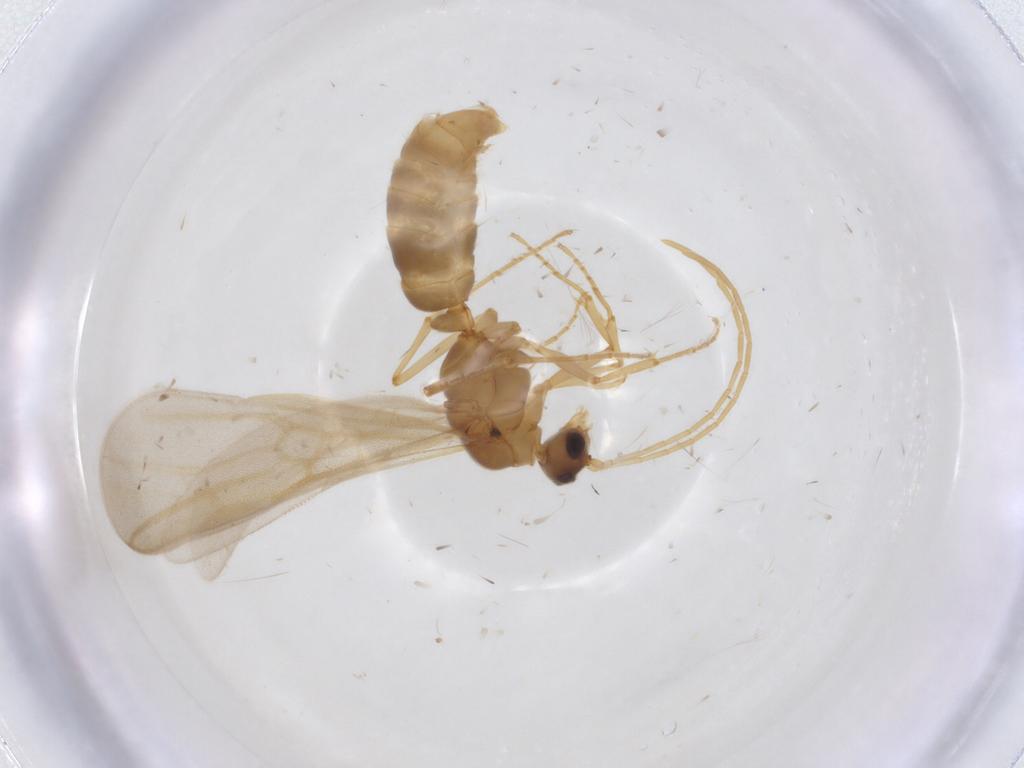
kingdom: Animalia
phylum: Arthropoda
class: Insecta
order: Hymenoptera
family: Formicidae
